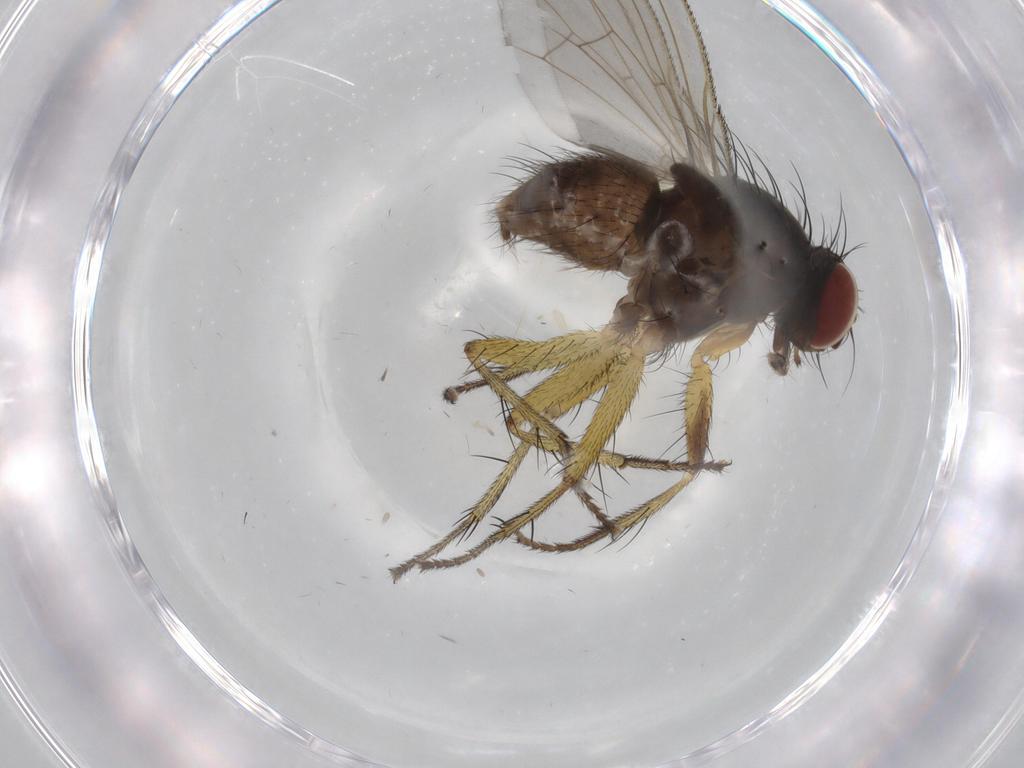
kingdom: Animalia
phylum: Arthropoda
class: Insecta
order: Diptera
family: Muscidae
